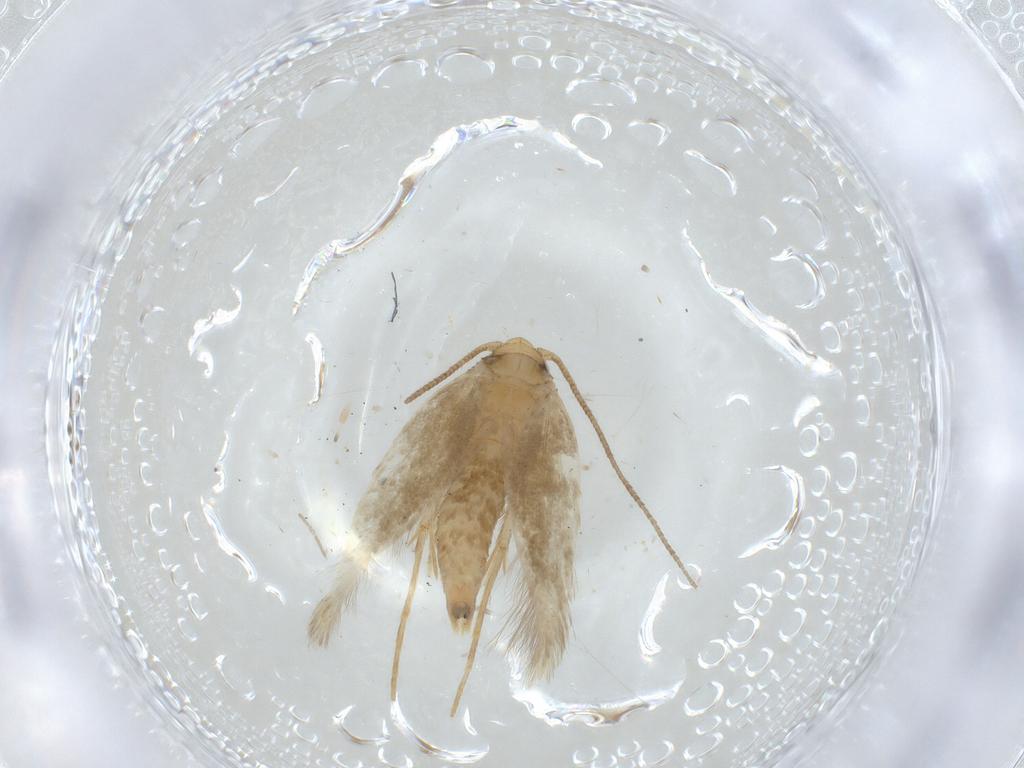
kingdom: Animalia
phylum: Arthropoda
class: Insecta
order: Lepidoptera
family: Tineidae
